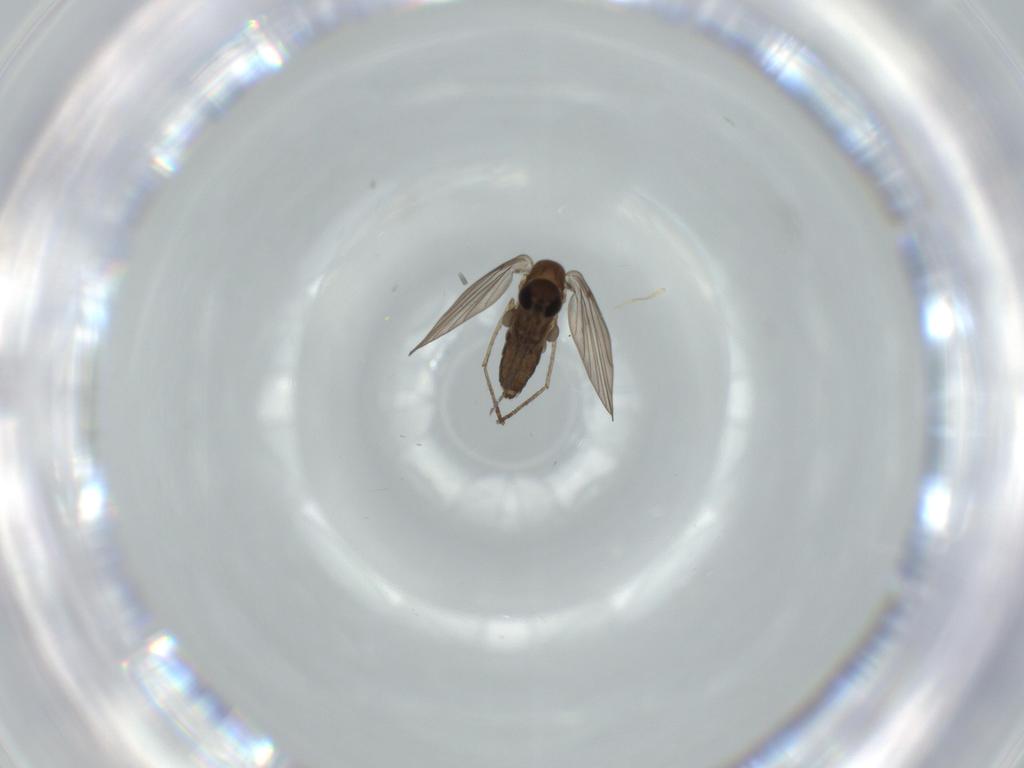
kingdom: Animalia
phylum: Arthropoda
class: Insecta
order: Diptera
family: Psychodidae
